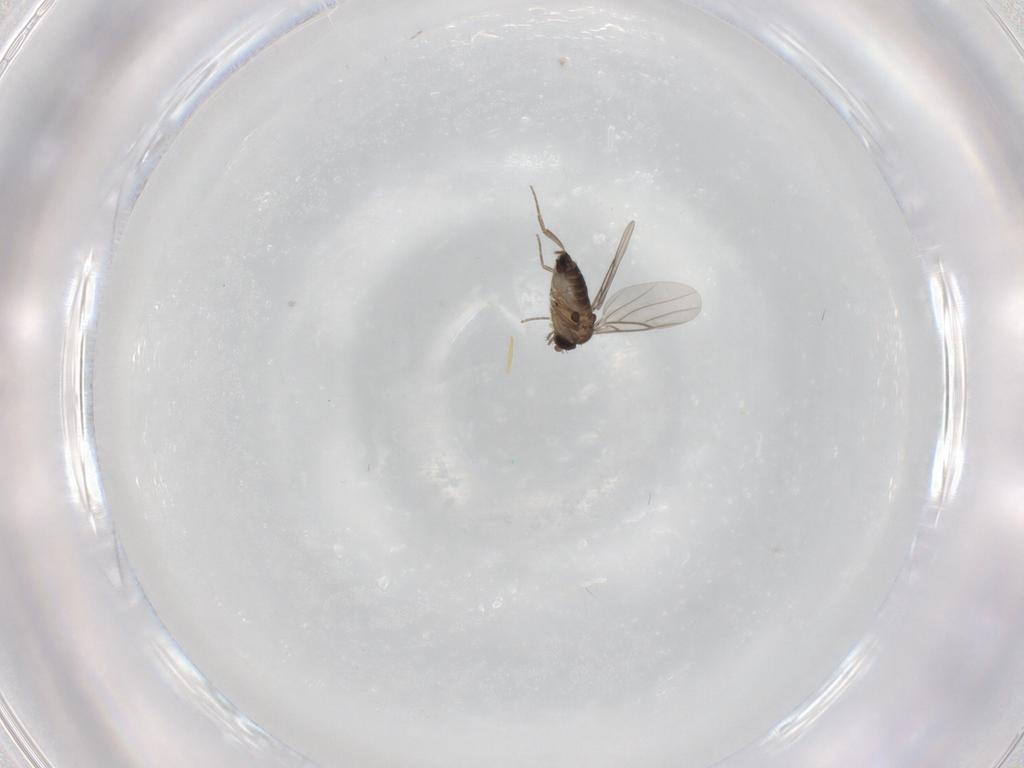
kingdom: Animalia
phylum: Arthropoda
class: Insecta
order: Diptera
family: Phoridae
